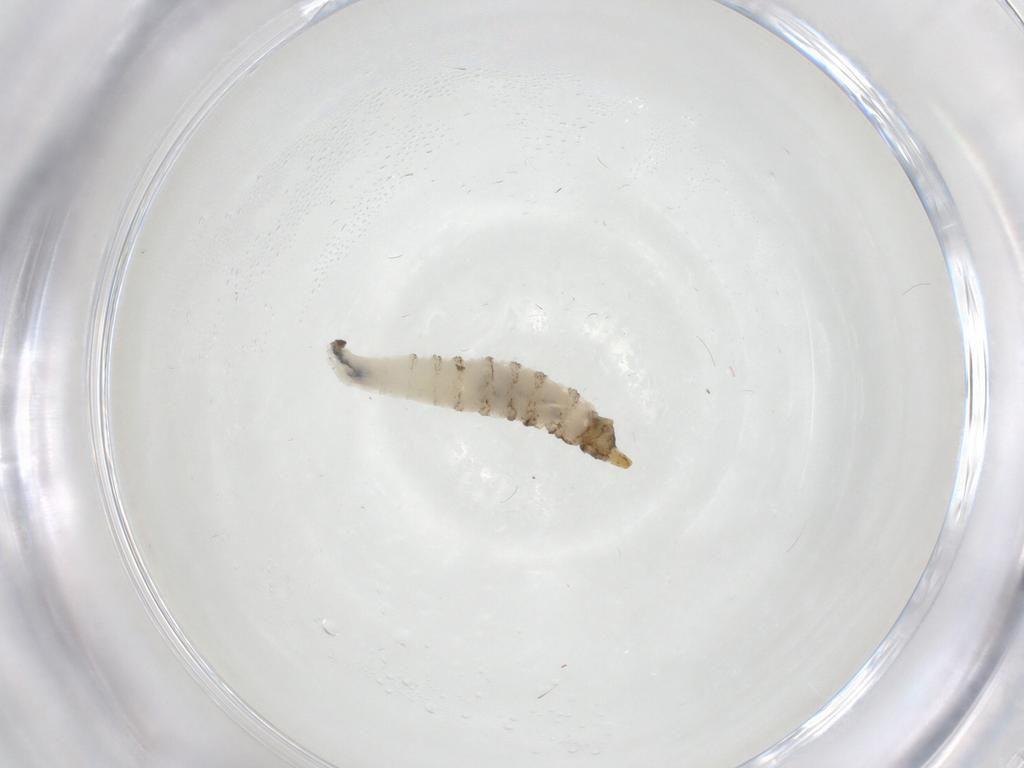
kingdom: Animalia
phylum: Arthropoda
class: Insecta
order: Diptera
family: Drosophilidae
